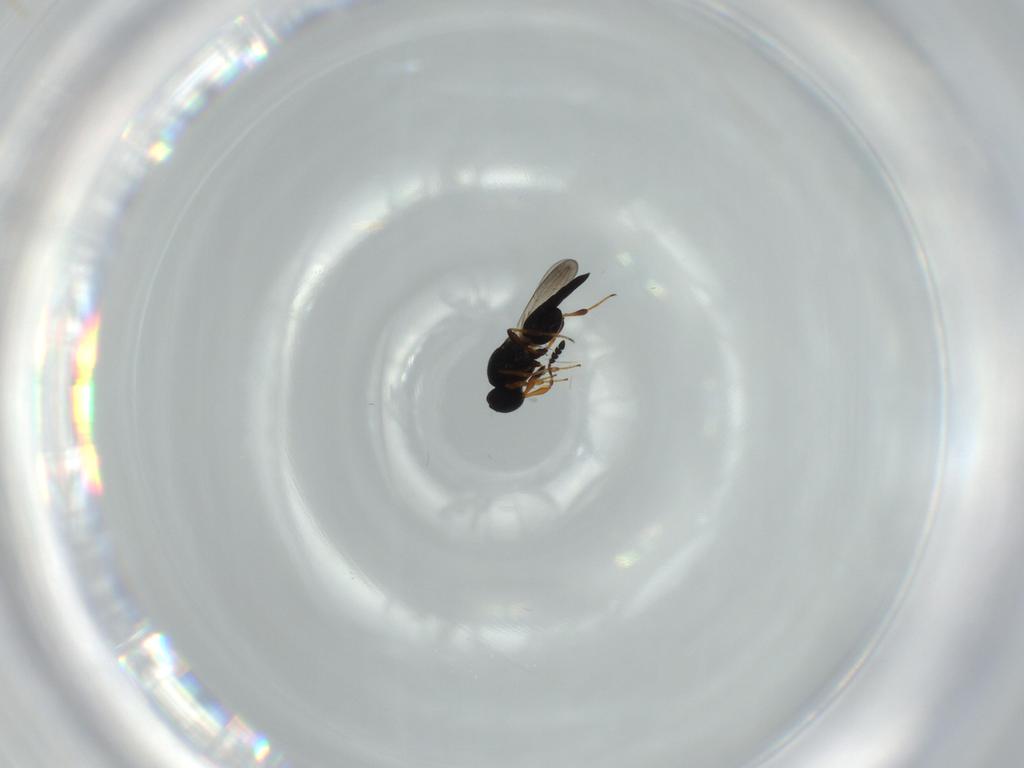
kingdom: Animalia
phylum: Arthropoda
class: Insecta
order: Hymenoptera
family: Platygastridae
